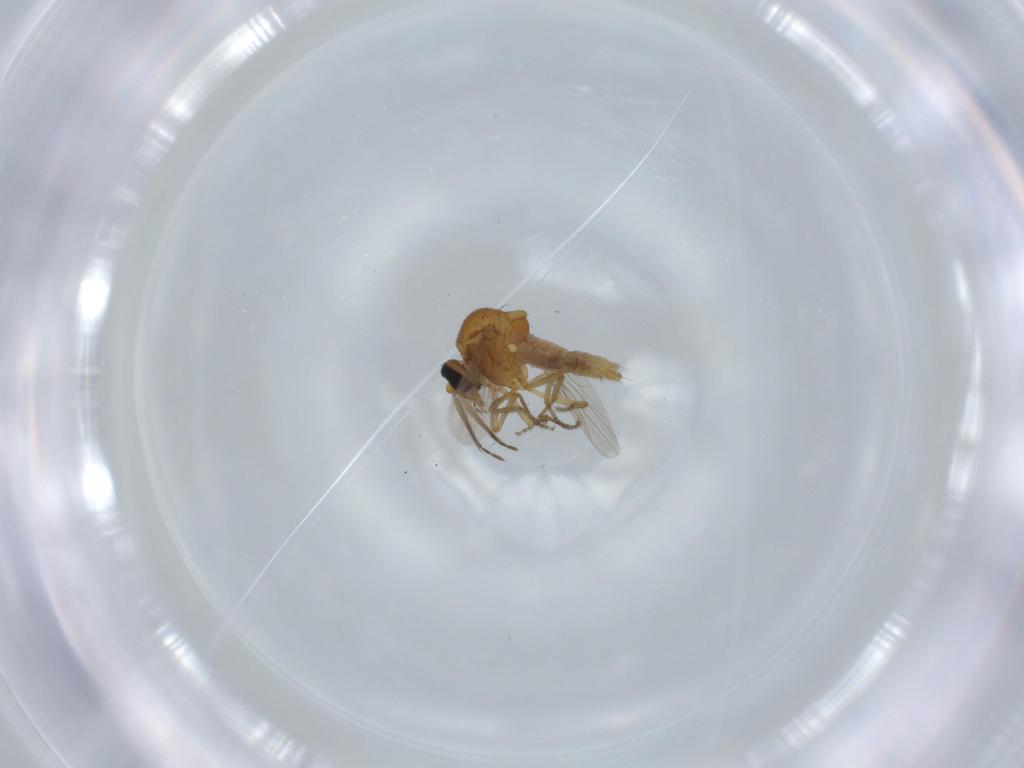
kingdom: Animalia
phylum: Arthropoda
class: Insecta
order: Diptera
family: Ceratopogonidae
